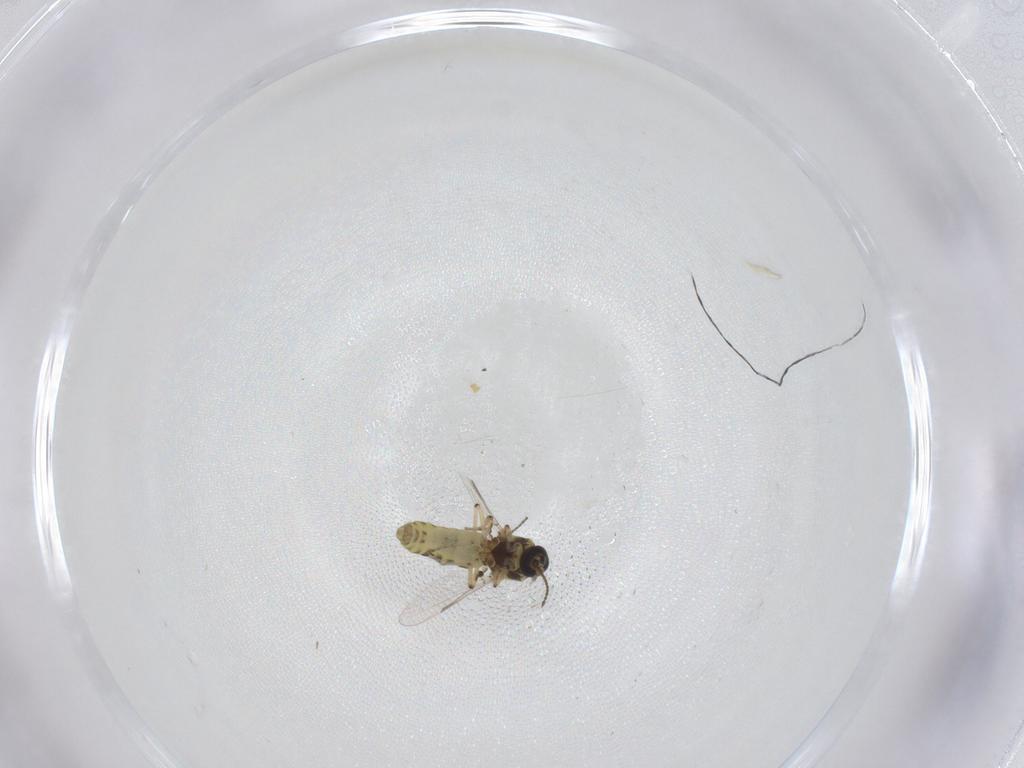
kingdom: Animalia
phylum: Arthropoda
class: Insecta
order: Diptera
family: Ceratopogonidae
